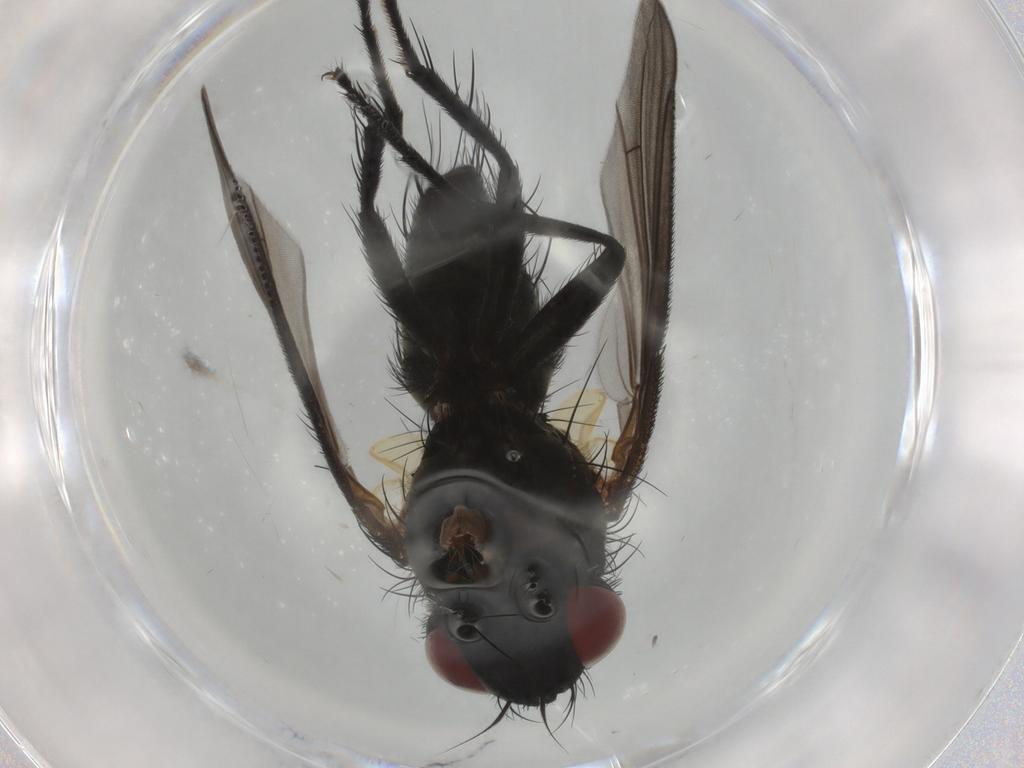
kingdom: Animalia
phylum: Arthropoda
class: Insecta
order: Diptera
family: Tachinidae
